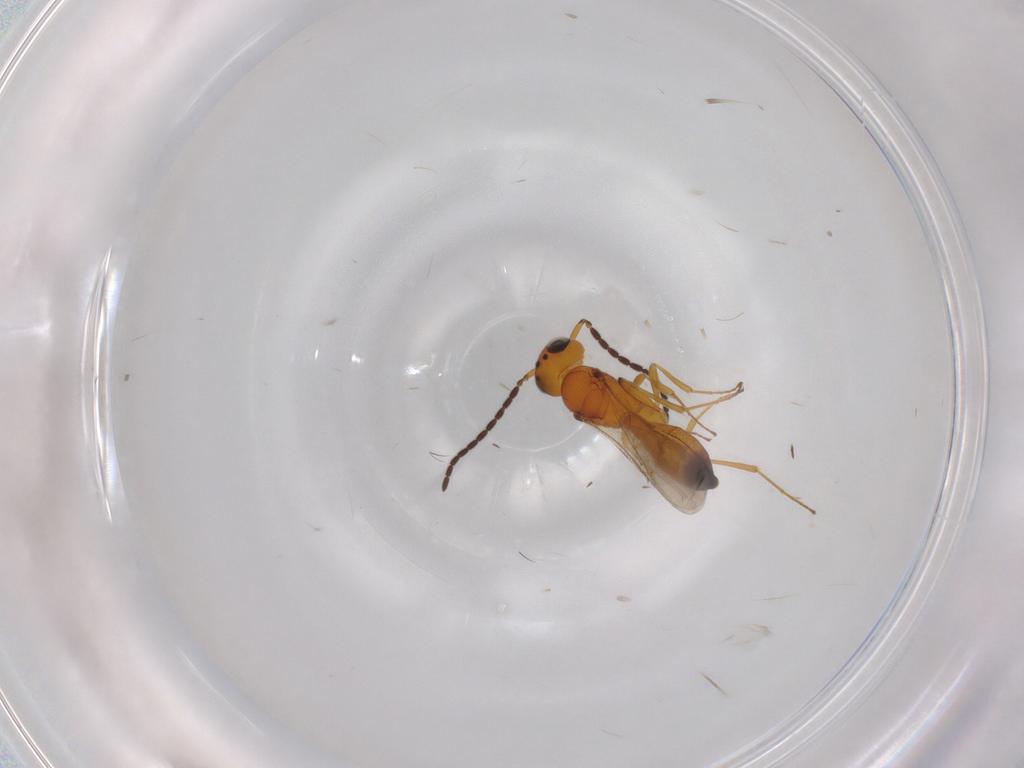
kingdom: Animalia
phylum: Arthropoda
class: Insecta
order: Hymenoptera
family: Scelionidae
